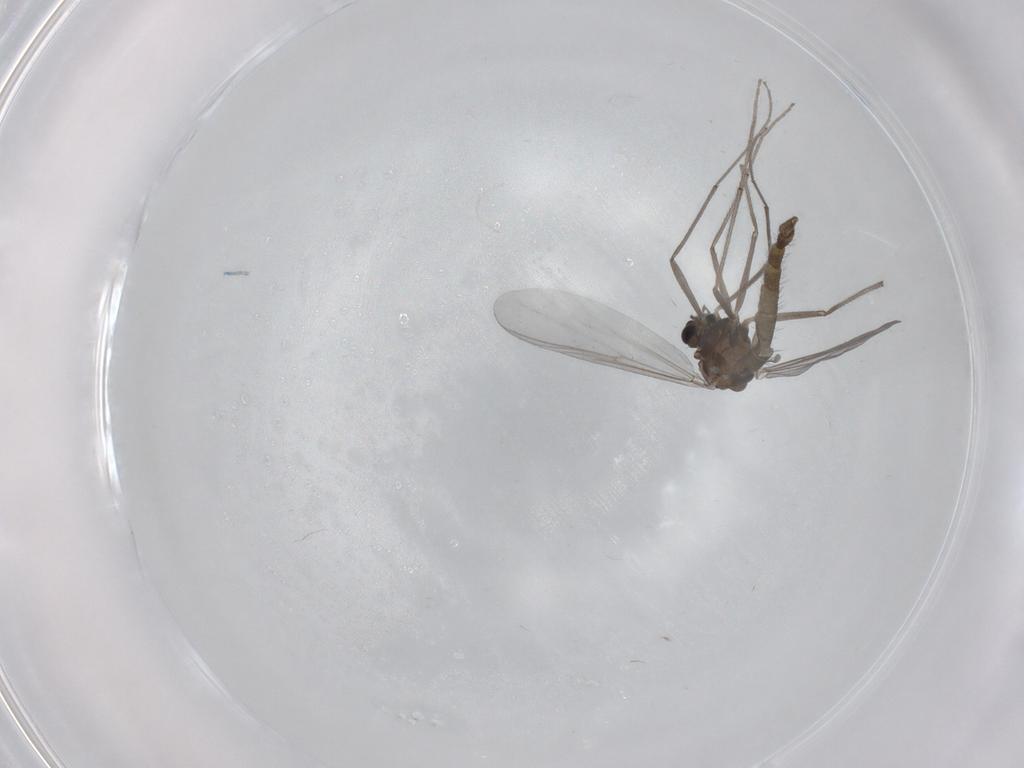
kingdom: Animalia
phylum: Arthropoda
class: Insecta
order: Diptera
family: Chironomidae
